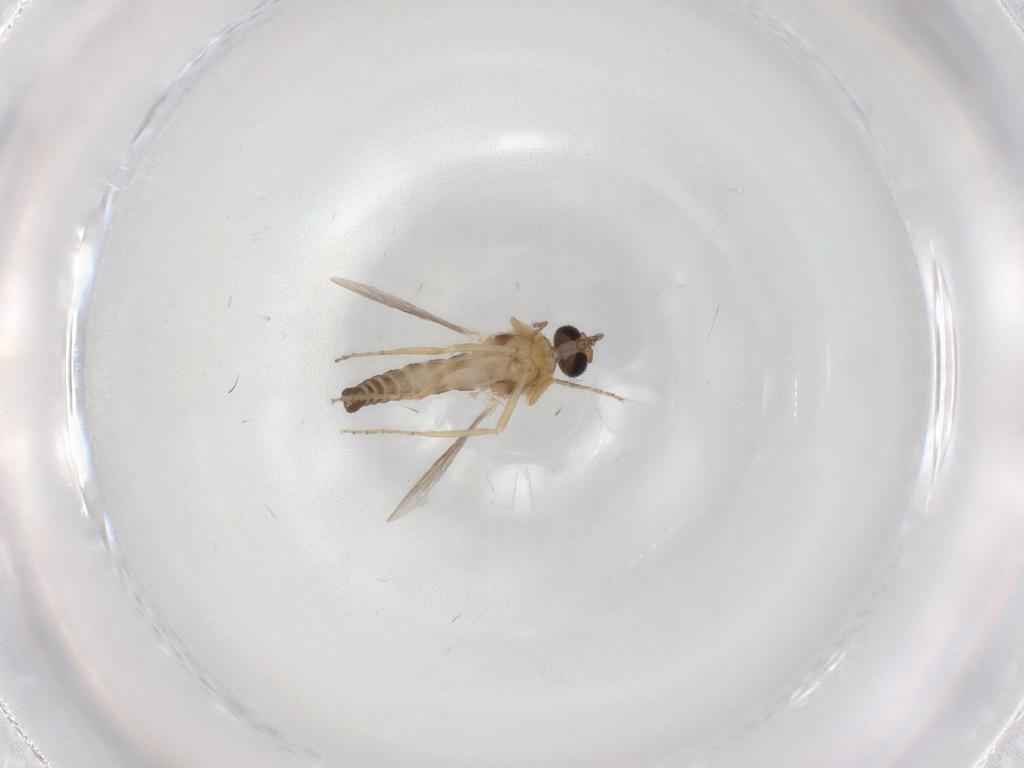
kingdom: Animalia
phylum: Arthropoda
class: Insecta
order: Diptera
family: Ceratopogonidae
